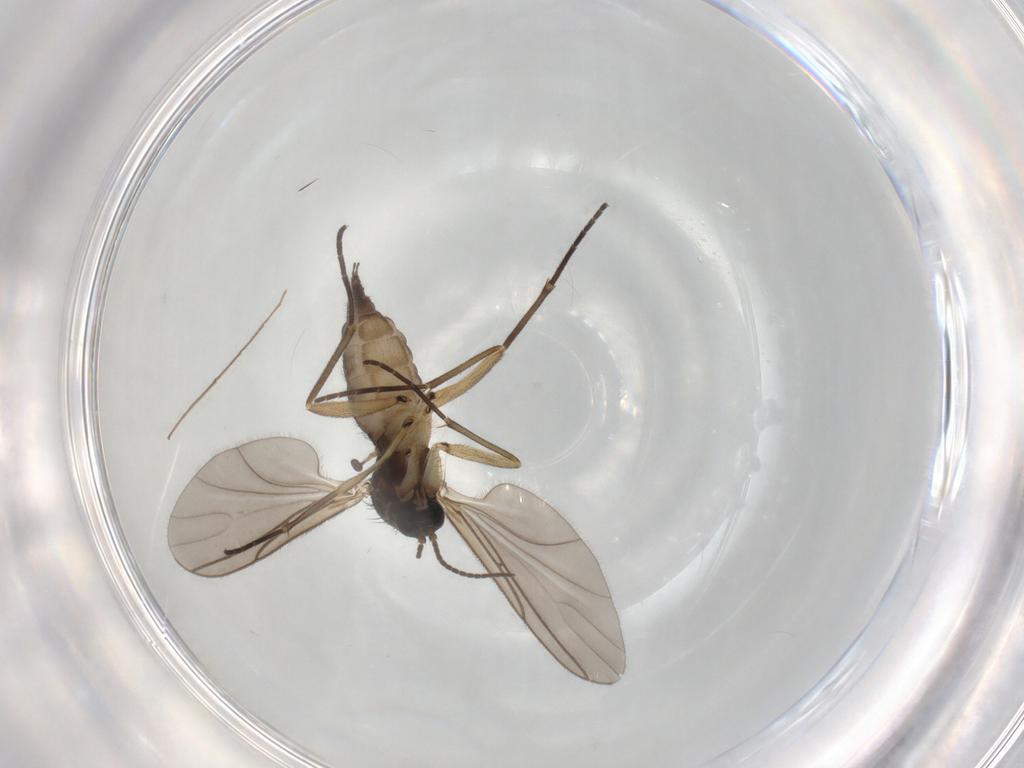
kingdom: Animalia
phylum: Arthropoda
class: Insecta
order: Diptera
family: Sciaridae
